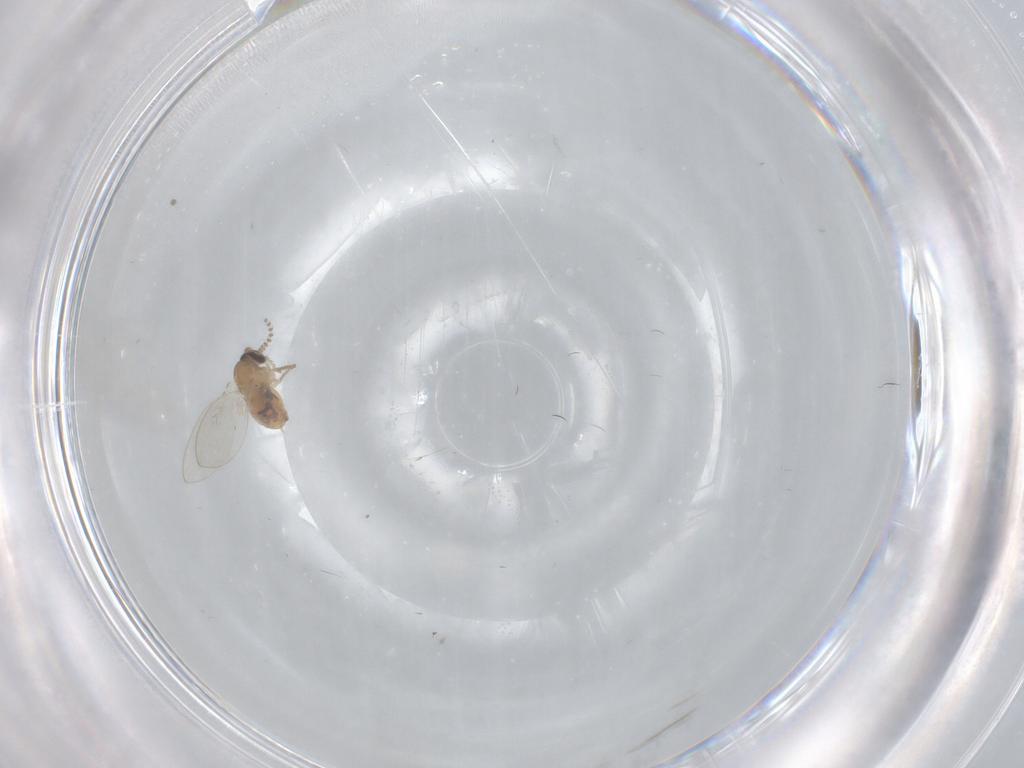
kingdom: Animalia
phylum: Arthropoda
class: Insecta
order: Diptera
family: Psychodidae
